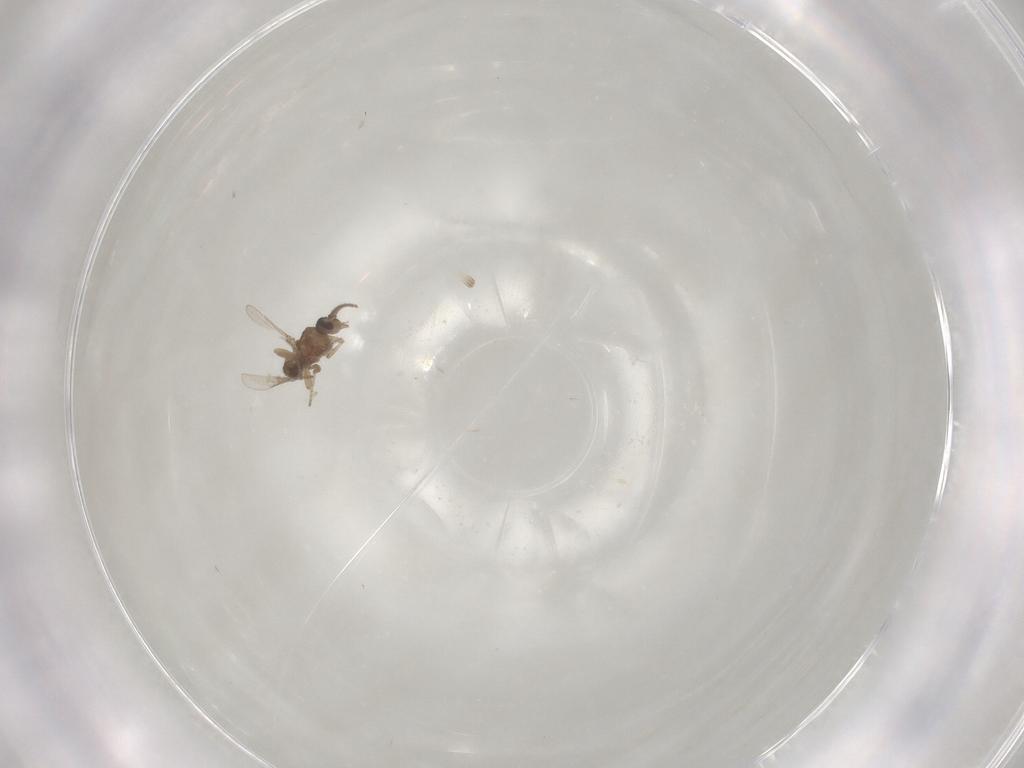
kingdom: Animalia
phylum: Arthropoda
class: Insecta
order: Diptera
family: Ceratopogonidae
